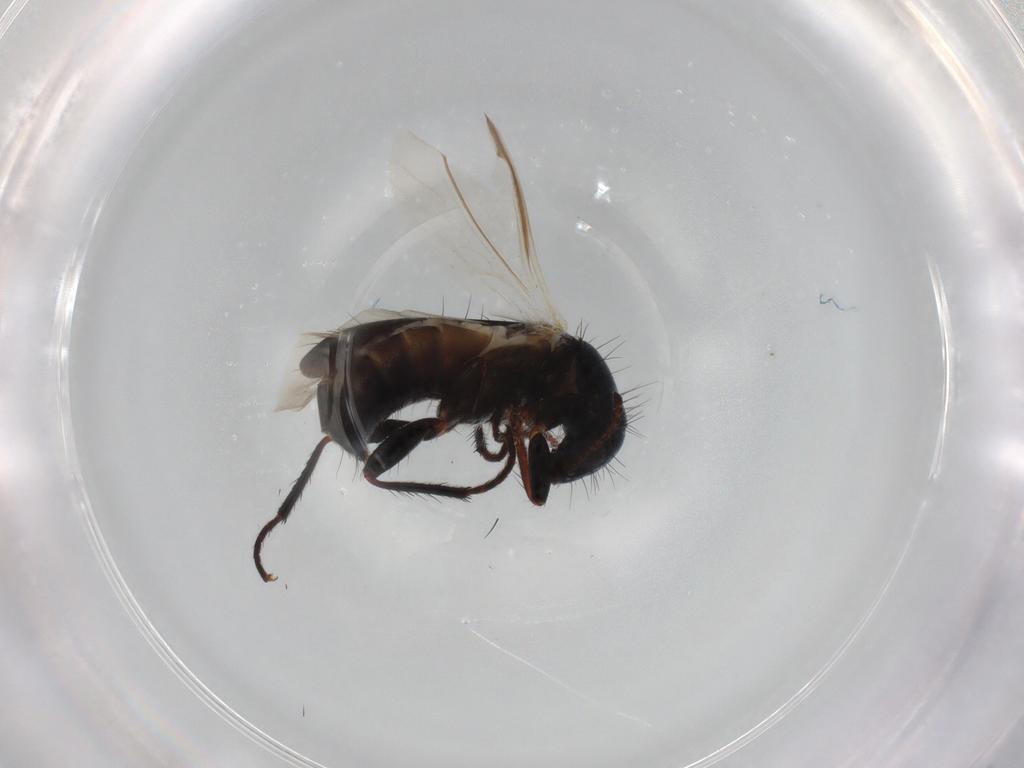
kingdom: Animalia
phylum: Arthropoda
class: Insecta
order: Coleoptera
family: Melyridae
